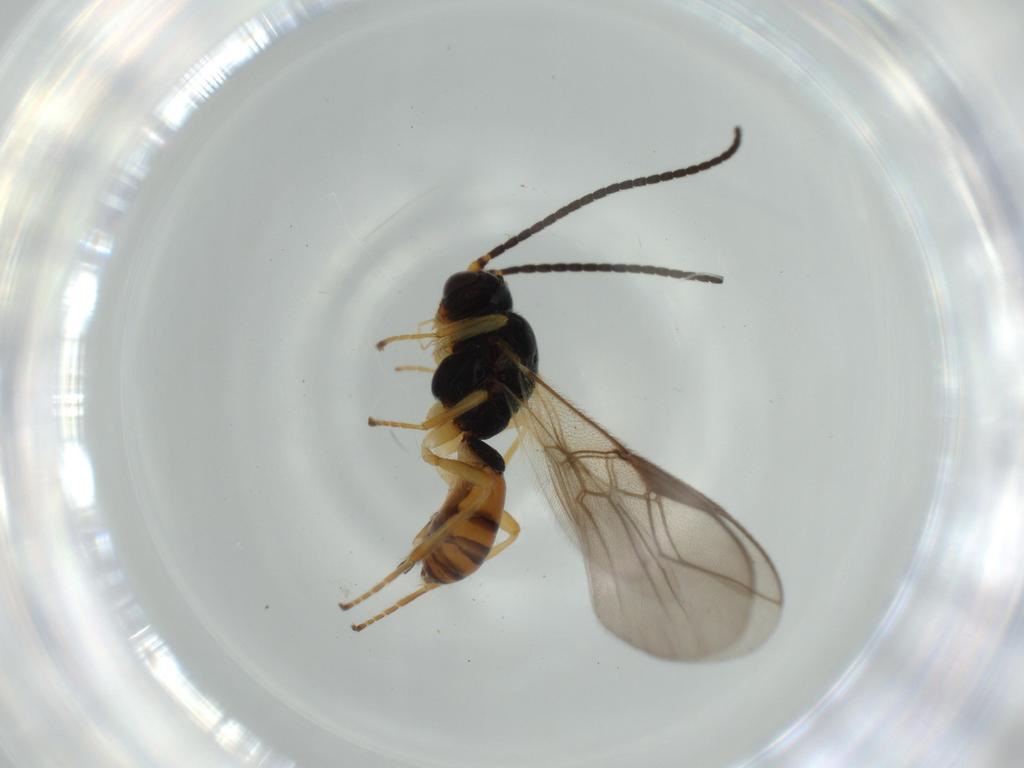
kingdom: Animalia
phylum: Arthropoda
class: Insecta
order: Hymenoptera
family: Braconidae
